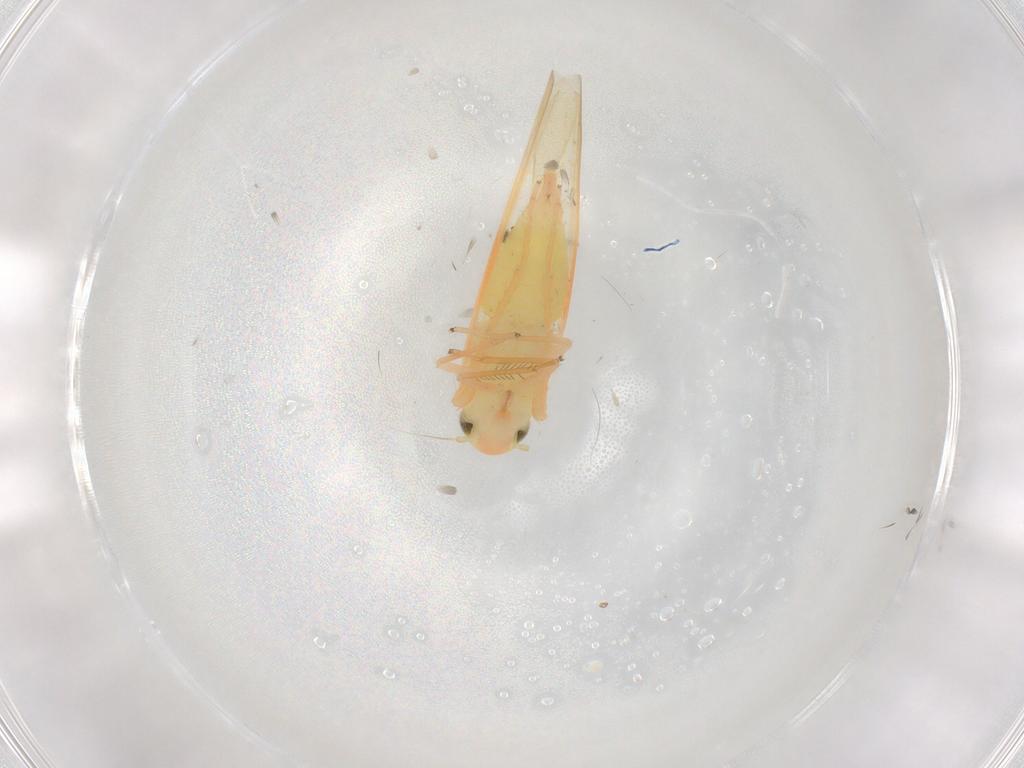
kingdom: Animalia
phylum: Arthropoda
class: Insecta
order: Hemiptera
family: Cicadellidae
